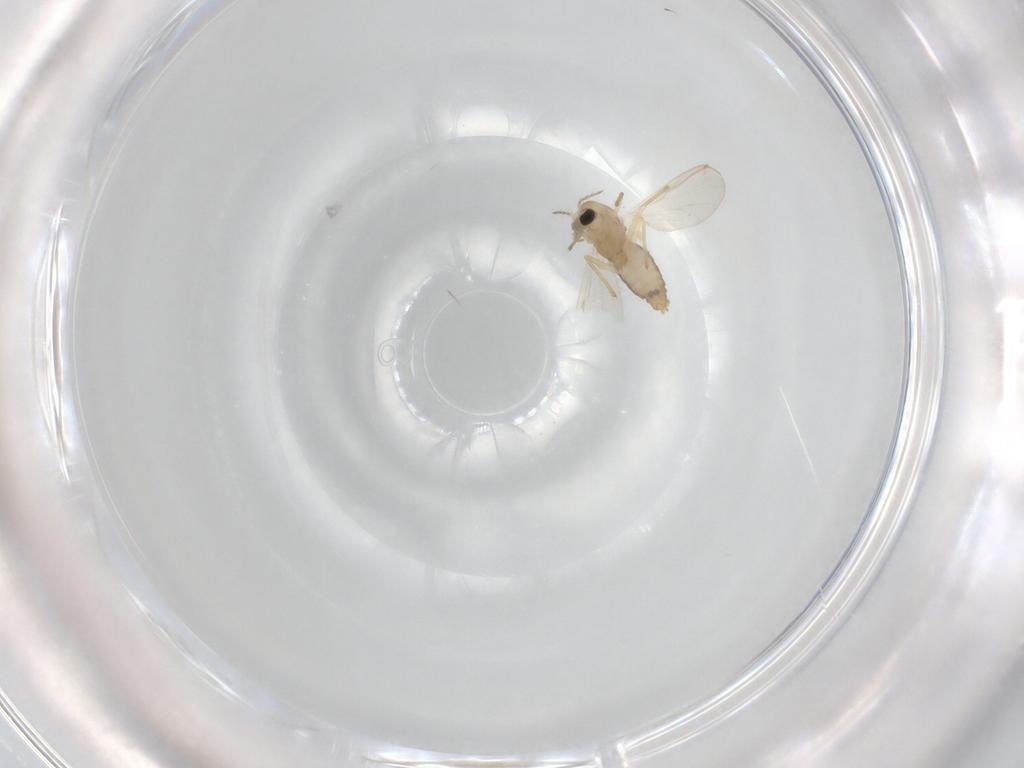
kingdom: Animalia
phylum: Arthropoda
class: Insecta
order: Diptera
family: Chironomidae
